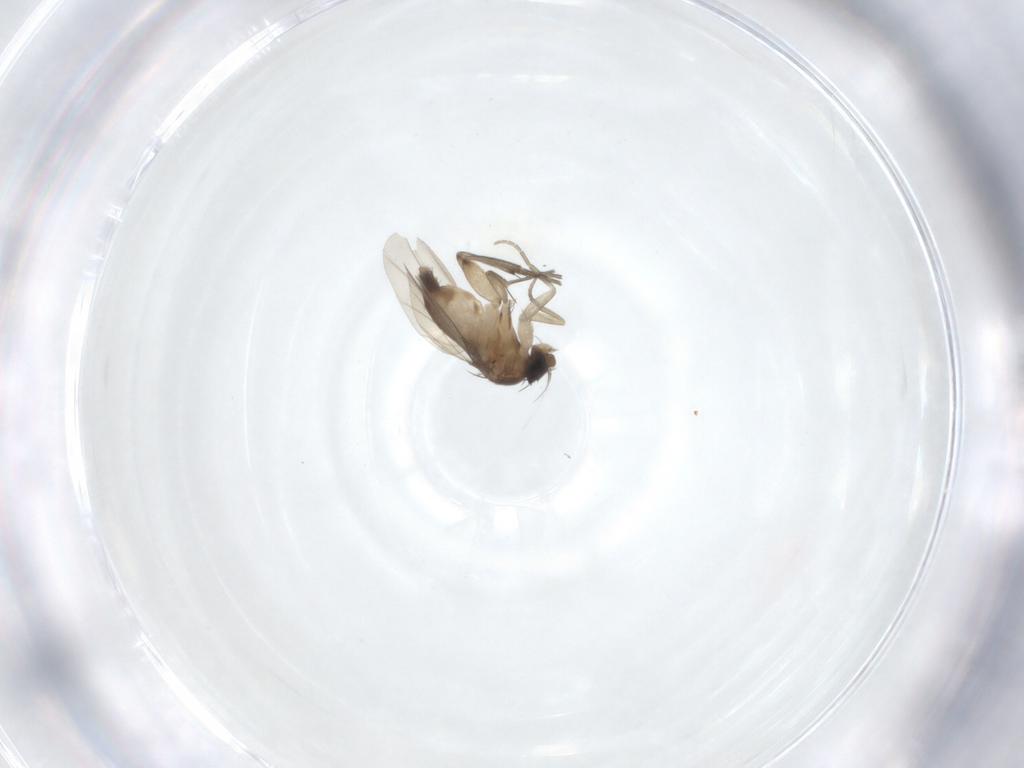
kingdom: Animalia
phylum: Arthropoda
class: Insecta
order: Diptera
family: Phoridae
